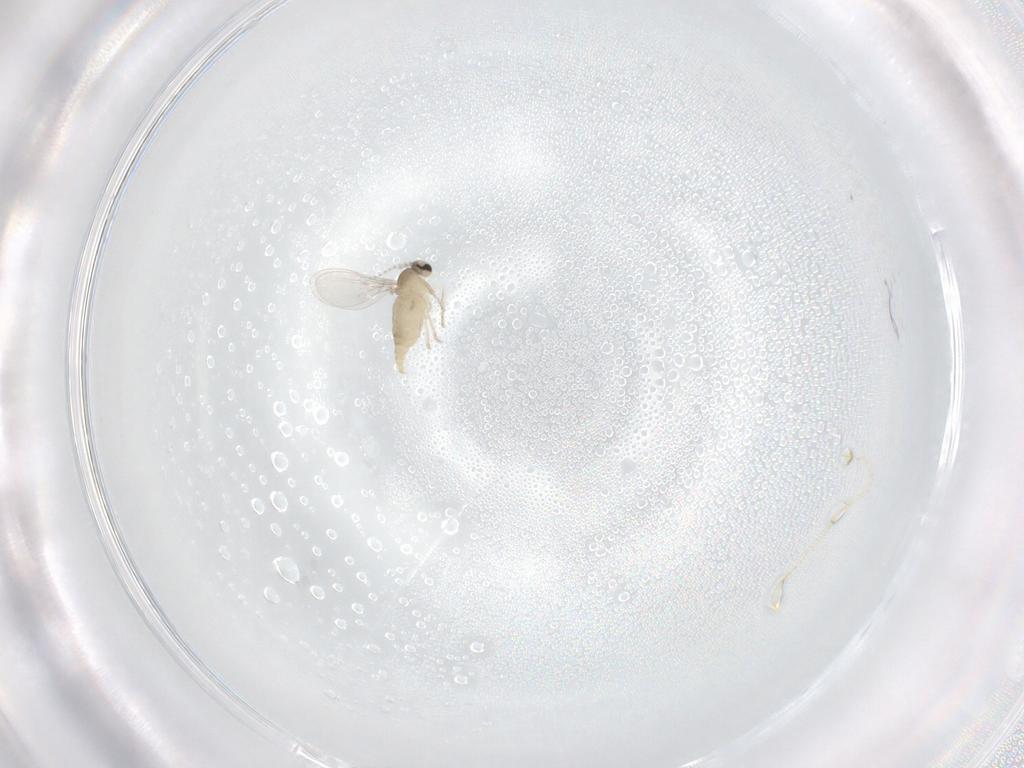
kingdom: Animalia
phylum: Arthropoda
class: Insecta
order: Diptera
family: Cecidomyiidae
